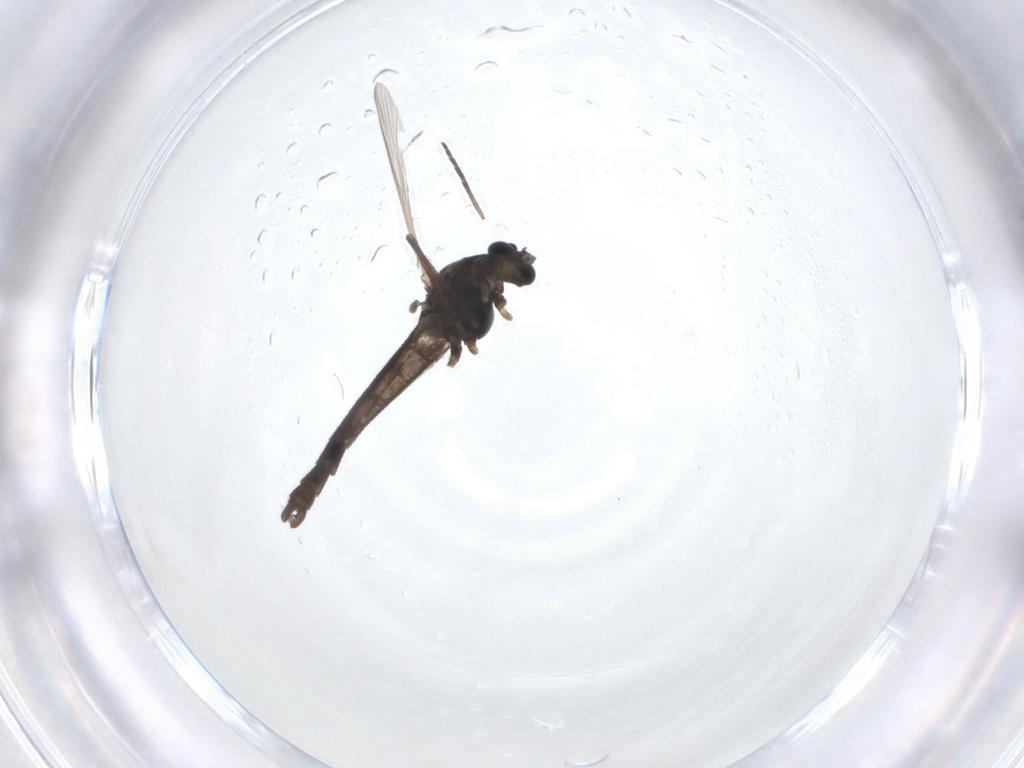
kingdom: Animalia
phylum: Arthropoda
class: Insecta
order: Diptera
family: Chironomidae
